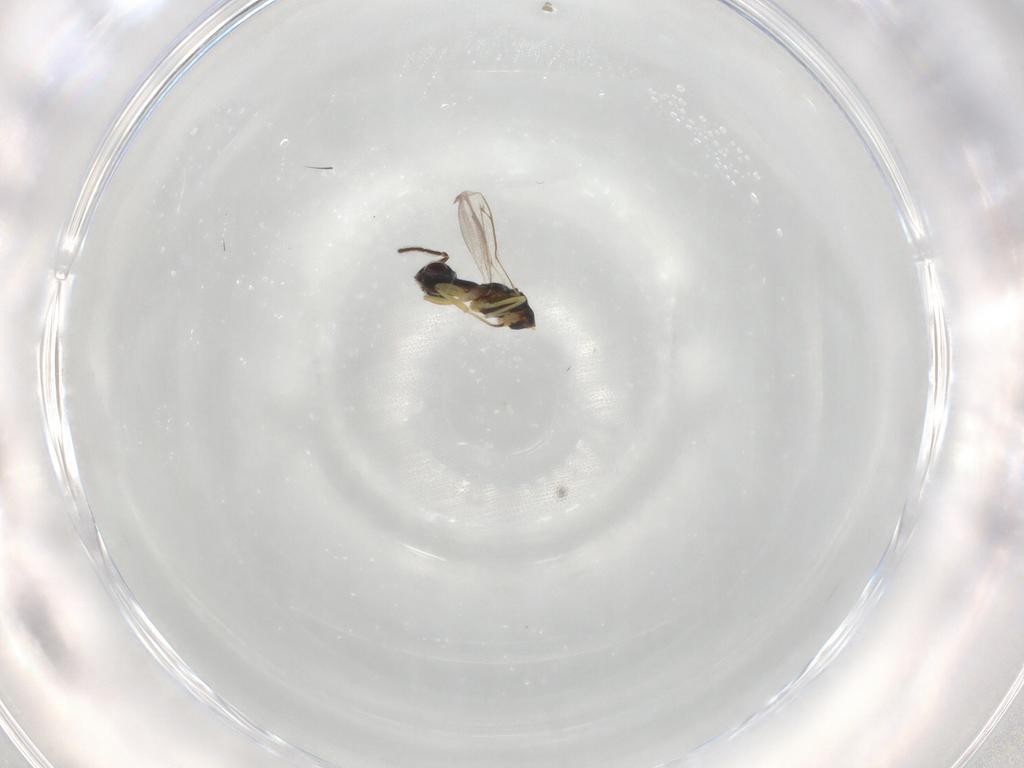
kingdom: Animalia
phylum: Arthropoda
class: Insecta
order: Hymenoptera
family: Eupelmidae
